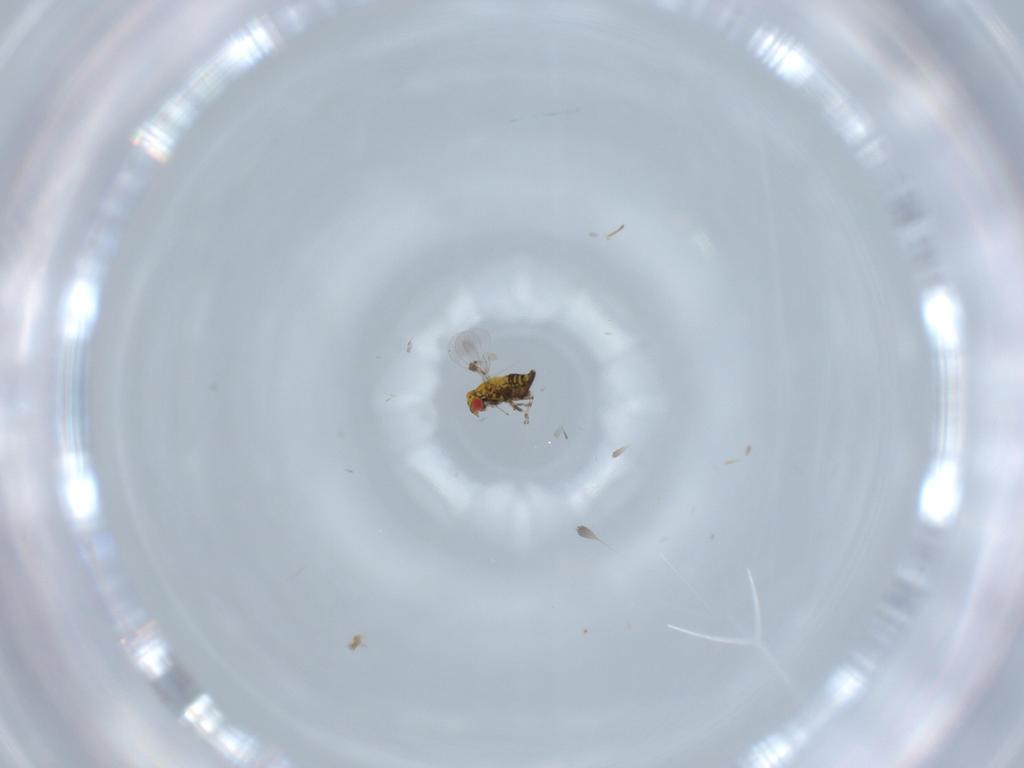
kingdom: Animalia
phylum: Arthropoda
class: Insecta
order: Hymenoptera
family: Scelionidae
